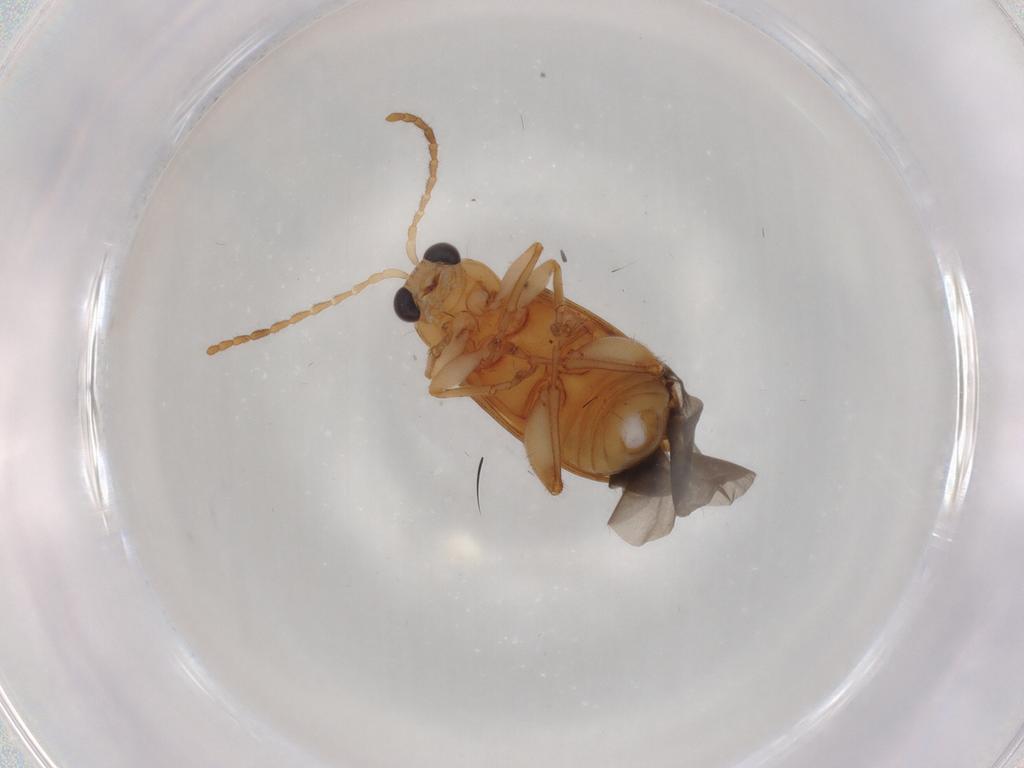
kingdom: Animalia
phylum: Arthropoda
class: Insecta
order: Coleoptera
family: Chrysomelidae
